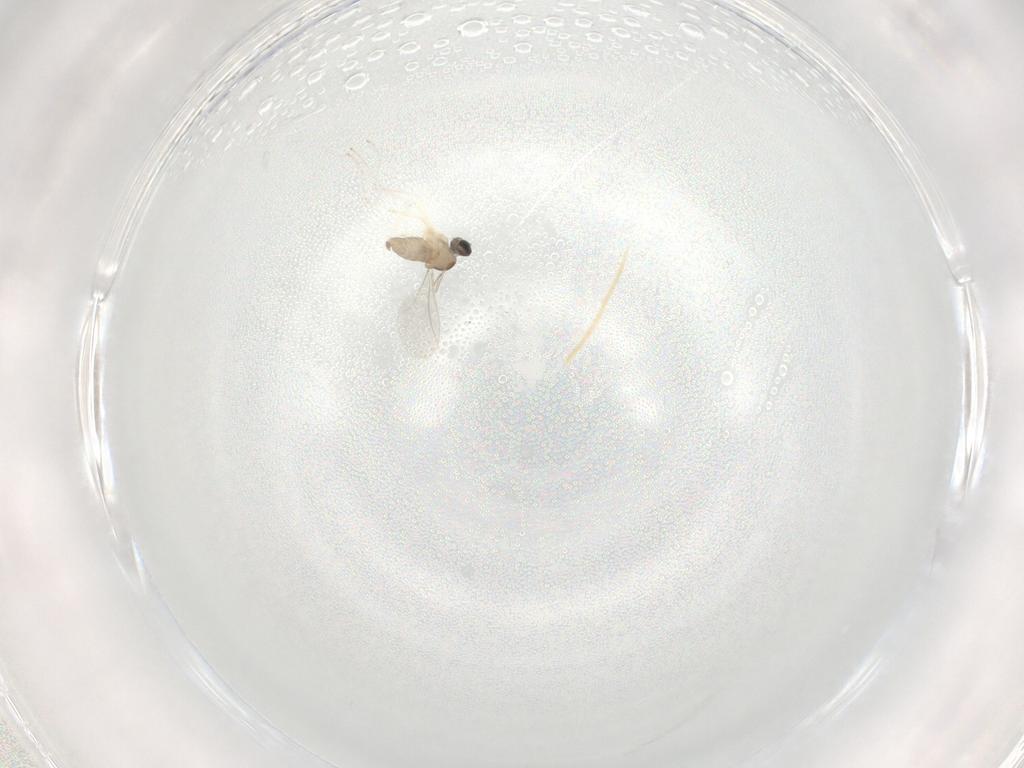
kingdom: Animalia
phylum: Arthropoda
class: Insecta
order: Diptera
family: Cecidomyiidae
